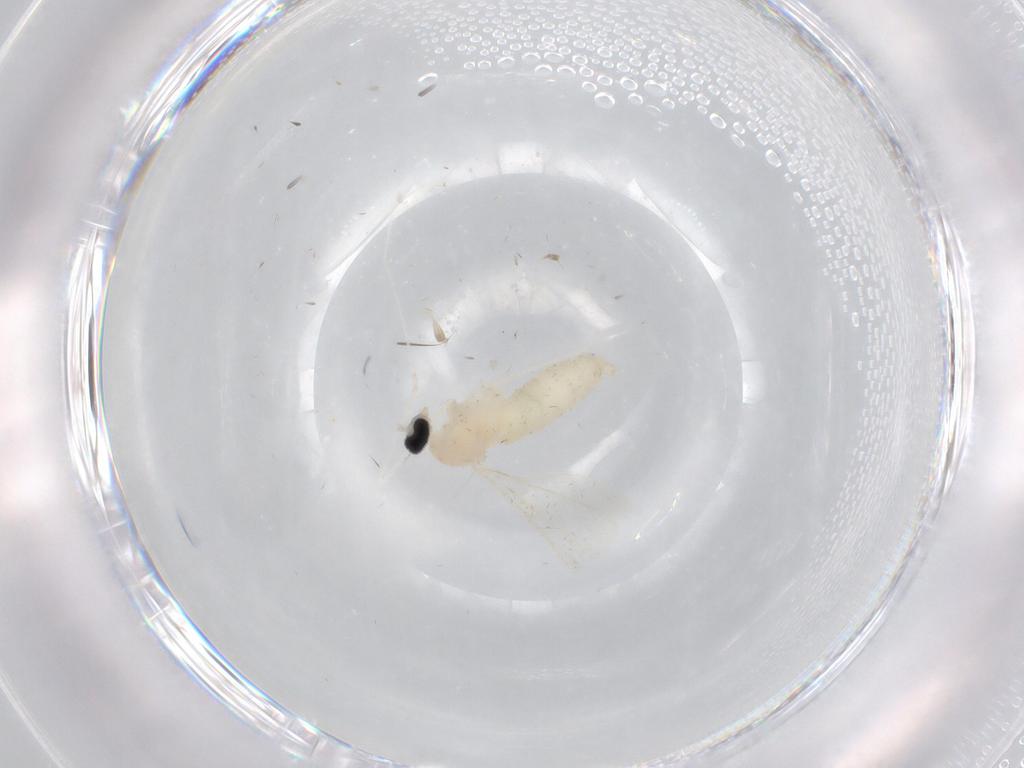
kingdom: Animalia
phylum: Arthropoda
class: Insecta
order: Diptera
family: Cecidomyiidae
